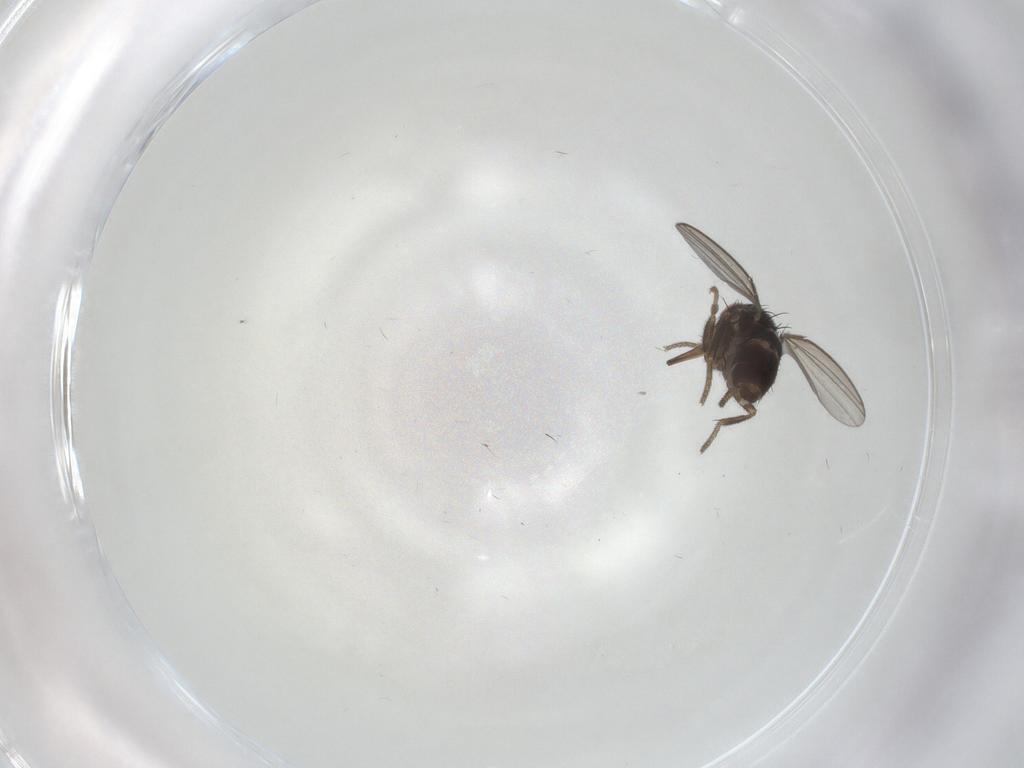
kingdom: Animalia
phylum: Arthropoda
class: Insecta
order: Diptera
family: Milichiidae
